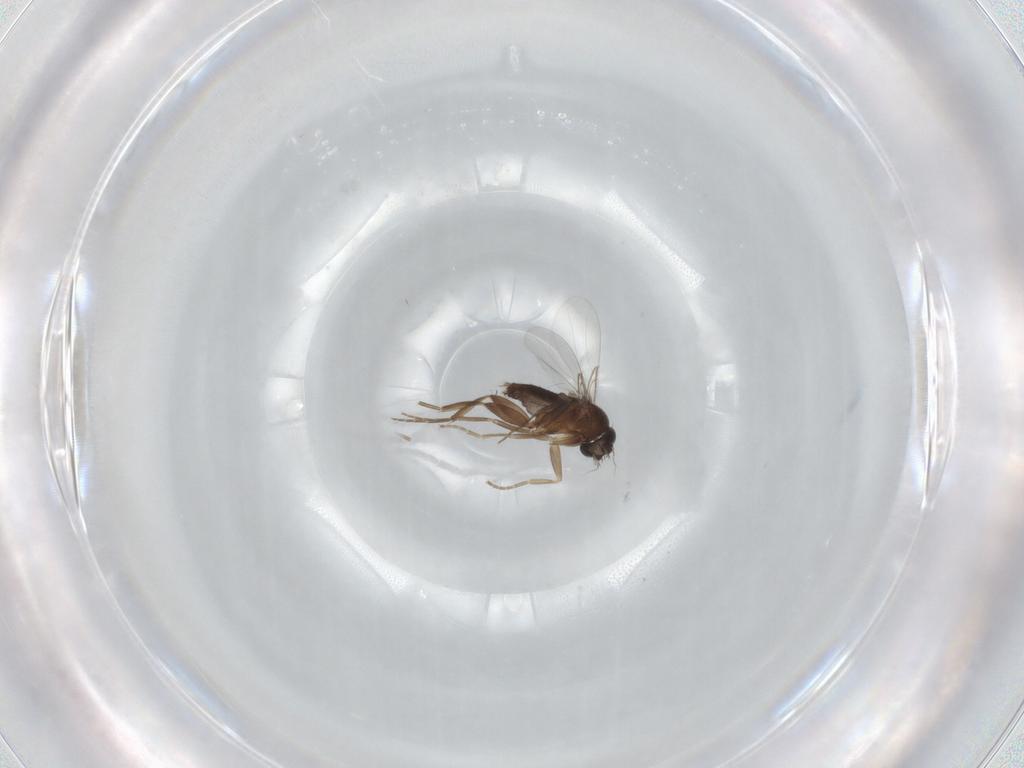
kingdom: Animalia
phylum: Arthropoda
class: Insecta
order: Diptera
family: Phoridae
